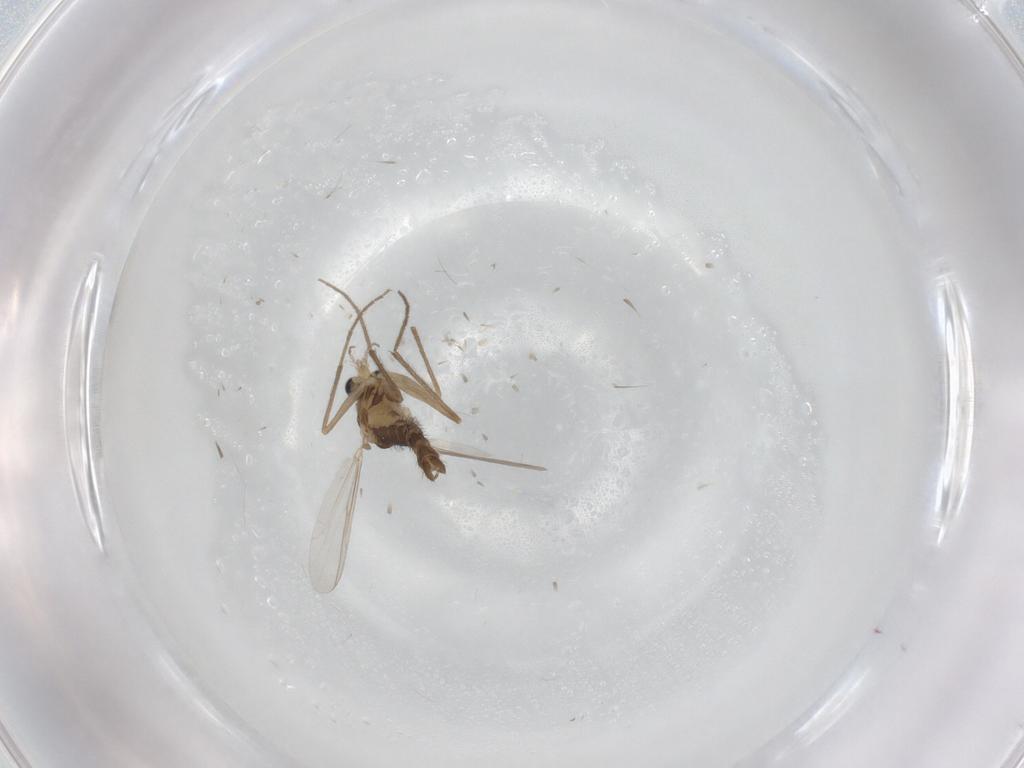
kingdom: Animalia
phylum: Arthropoda
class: Insecta
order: Diptera
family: Chironomidae
